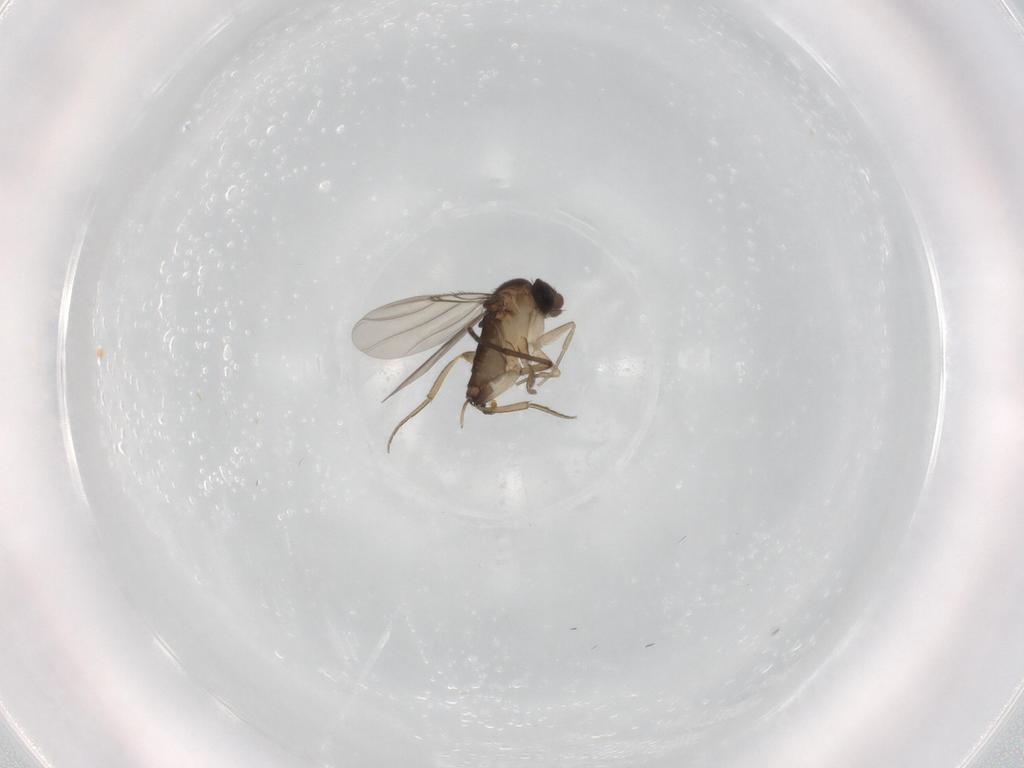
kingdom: Animalia
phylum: Arthropoda
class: Insecta
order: Diptera
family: Sciaridae
